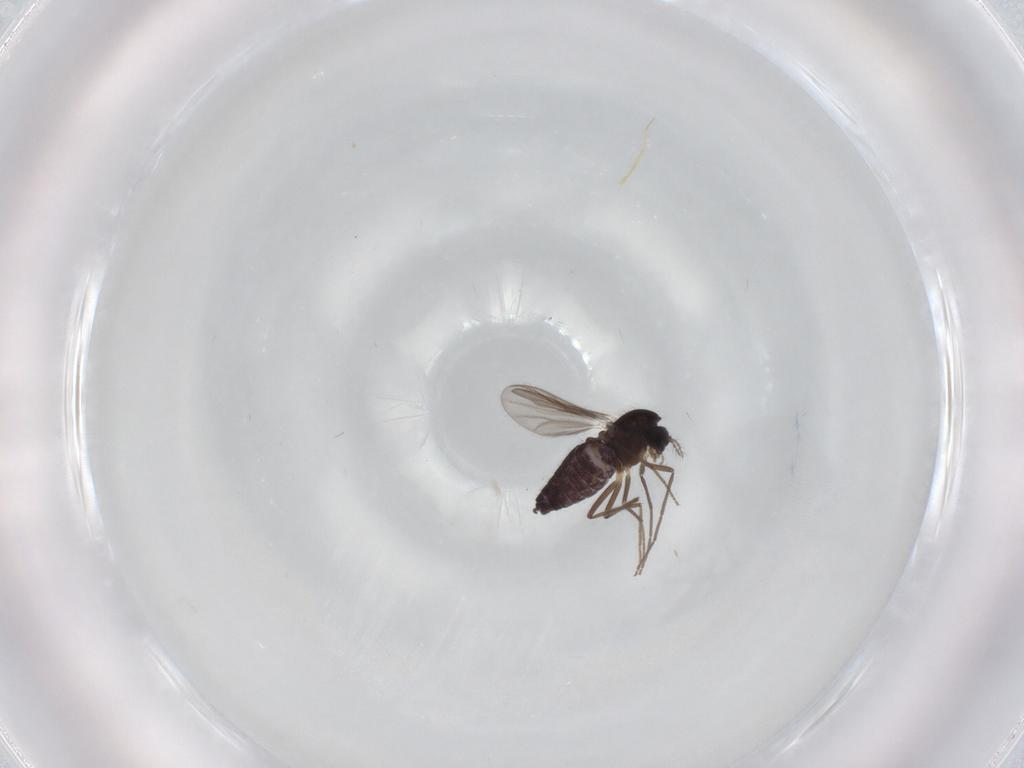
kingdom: Animalia
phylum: Arthropoda
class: Insecta
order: Diptera
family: Chironomidae
